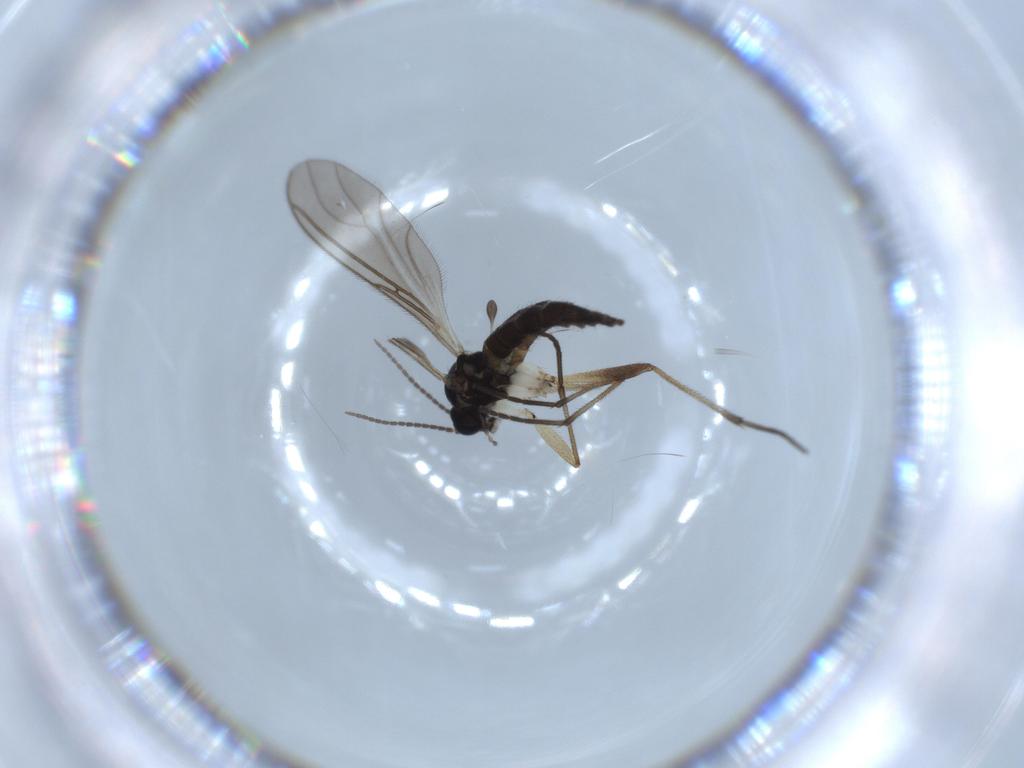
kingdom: Animalia
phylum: Arthropoda
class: Insecta
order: Diptera
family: Sciaridae
